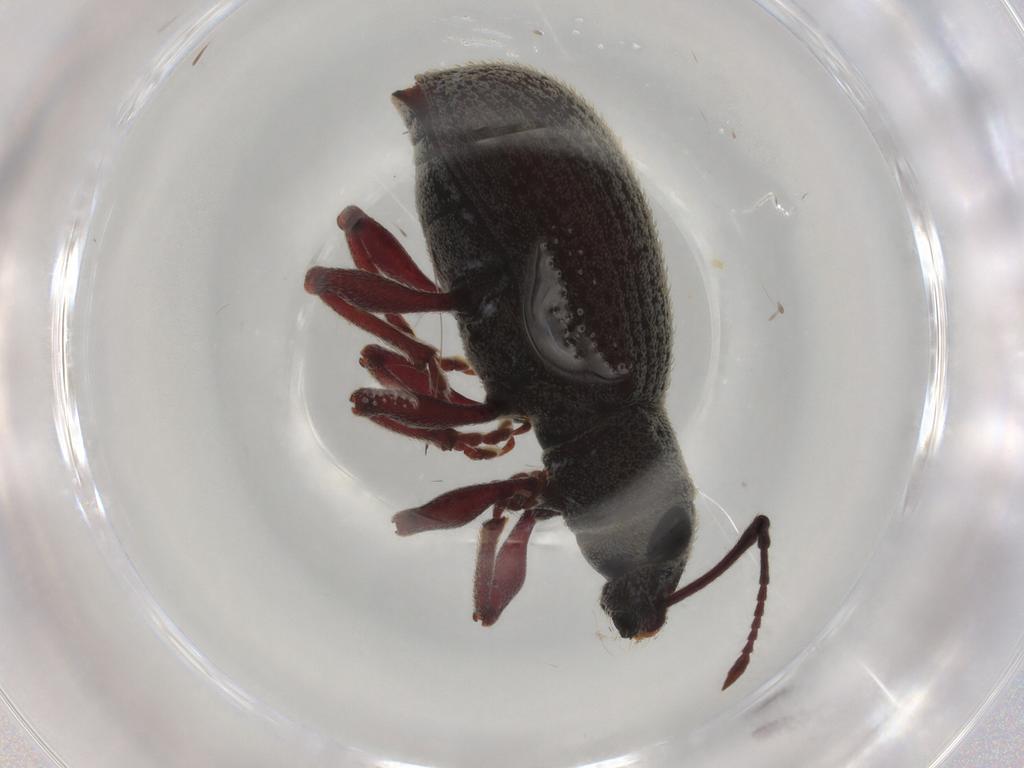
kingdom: Animalia
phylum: Arthropoda
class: Insecta
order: Coleoptera
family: Curculionidae
